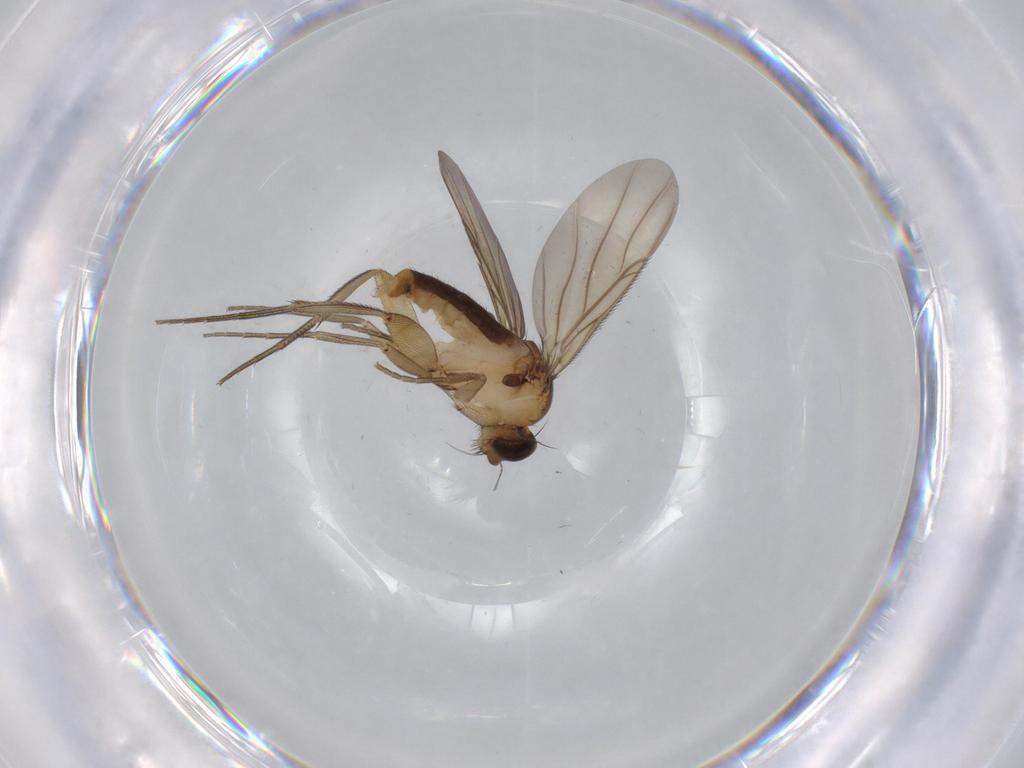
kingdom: Animalia
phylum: Arthropoda
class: Insecta
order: Diptera
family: Phoridae
